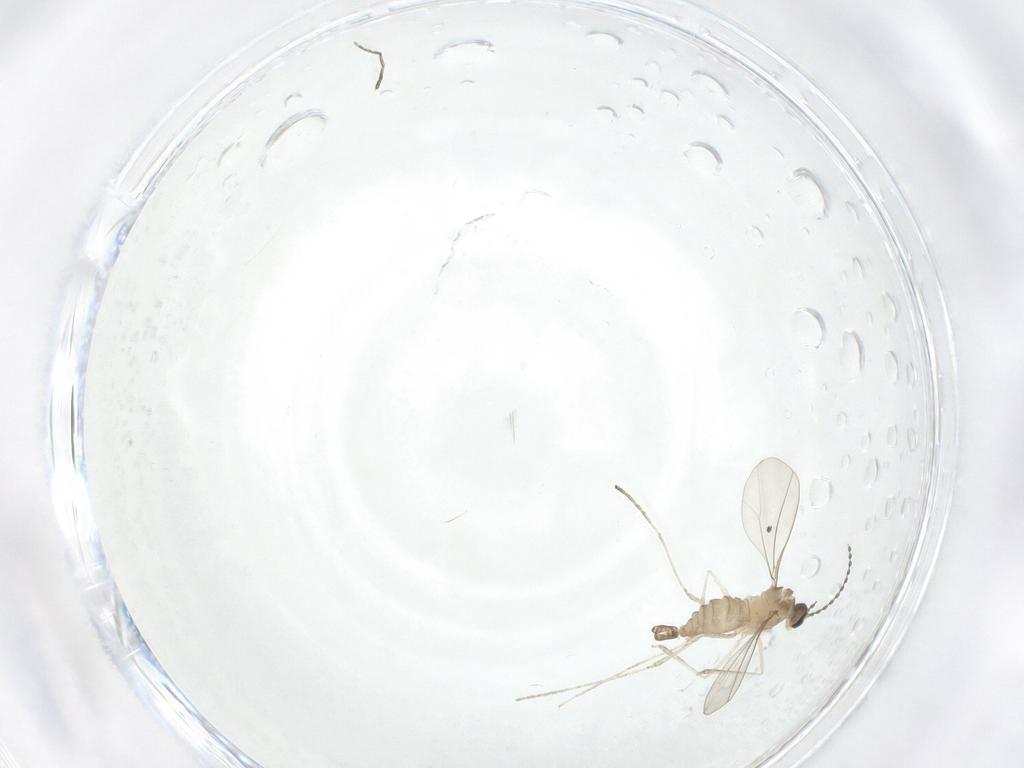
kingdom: Animalia
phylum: Arthropoda
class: Insecta
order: Diptera
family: Cecidomyiidae
